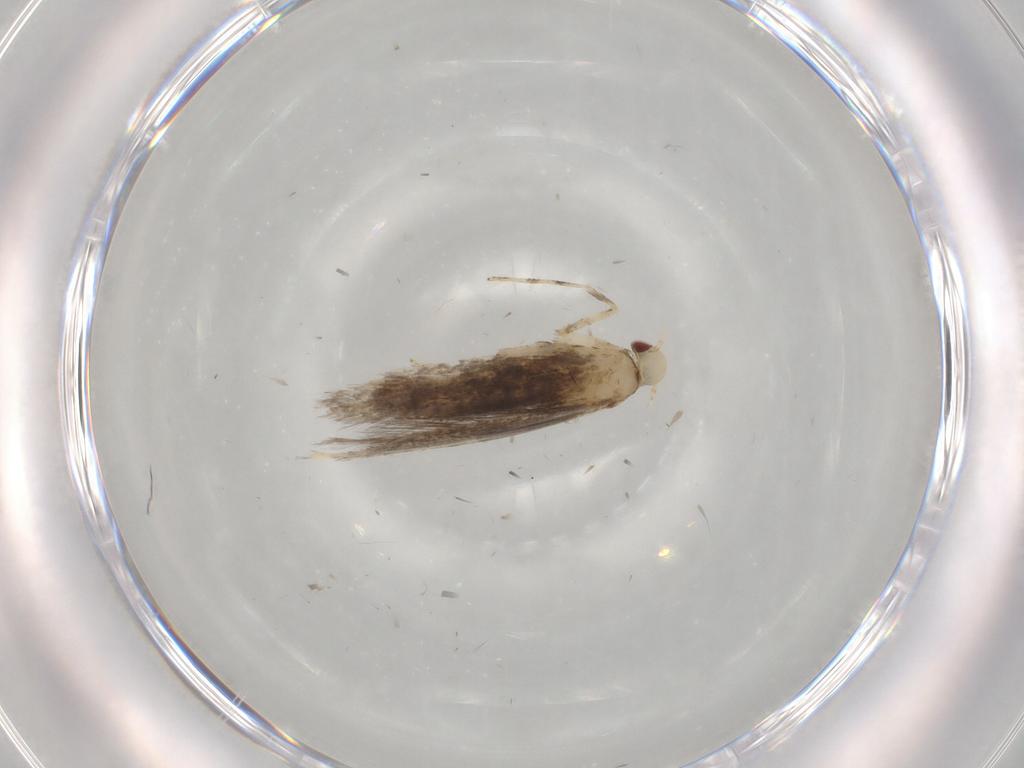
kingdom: Animalia
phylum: Arthropoda
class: Insecta
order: Lepidoptera
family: Gracillariidae
